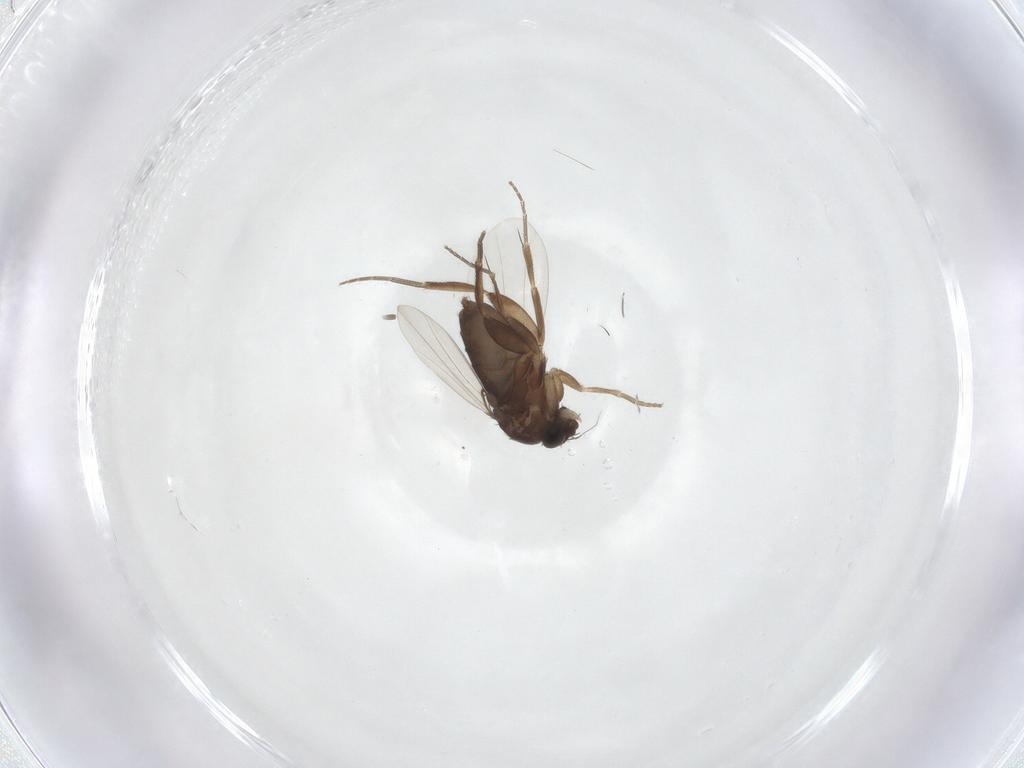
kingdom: Animalia
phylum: Arthropoda
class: Insecta
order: Diptera
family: Phoridae
